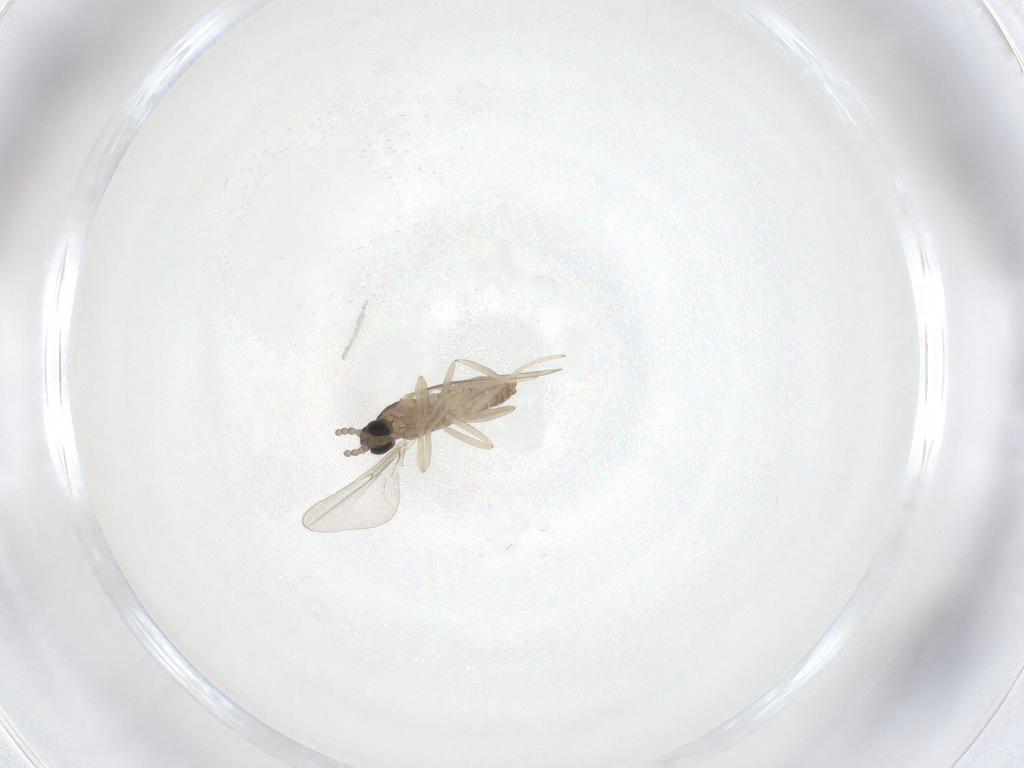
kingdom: Animalia
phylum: Arthropoda
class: Insecta
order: Diptera
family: Cecidomyiidae
